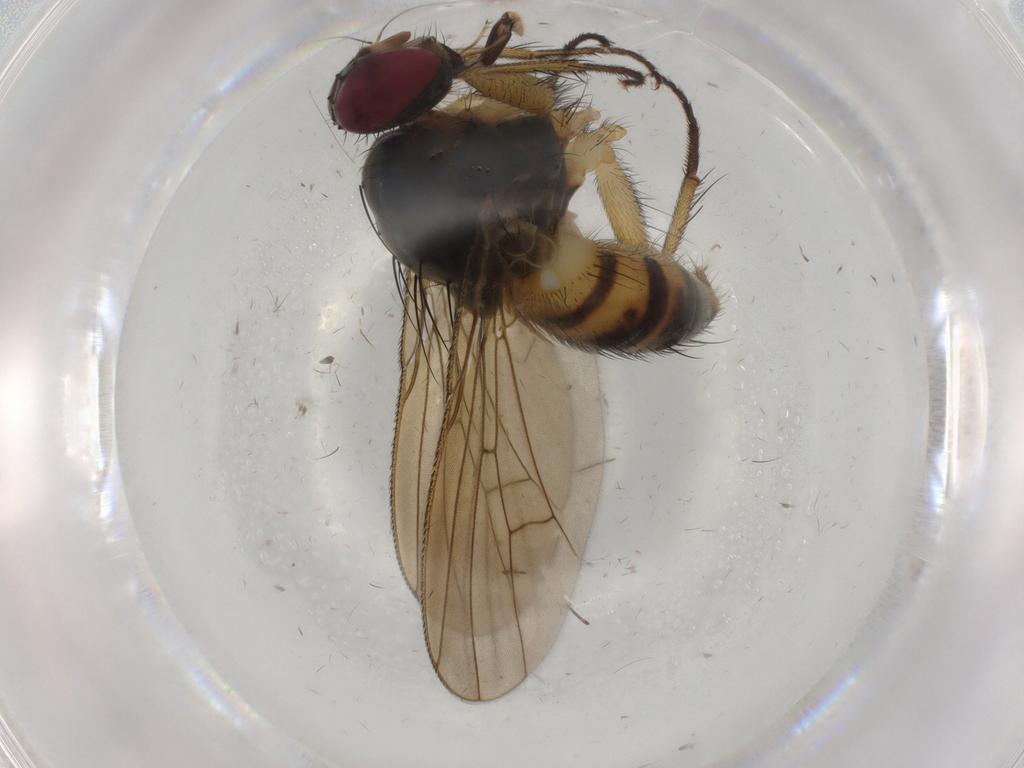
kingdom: Animalia
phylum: Arthropoda
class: Insecta
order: Diptera
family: Muscidae
